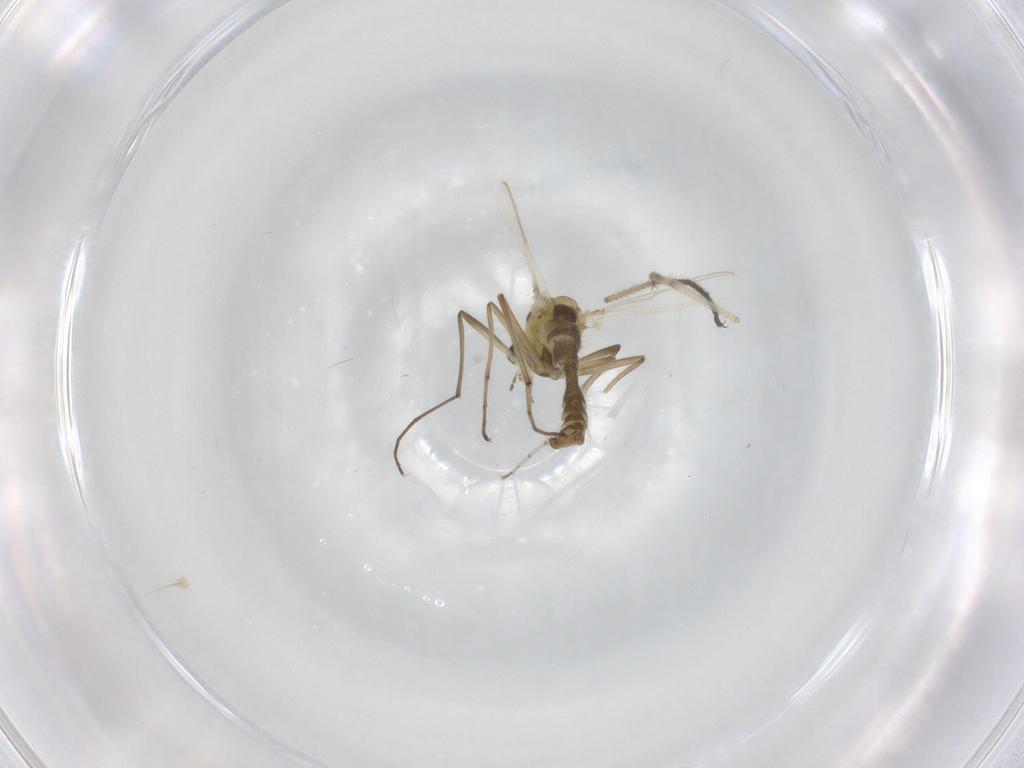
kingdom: Animalia
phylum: Arthropoda
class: Insecta
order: Diptera
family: Chironomidae
